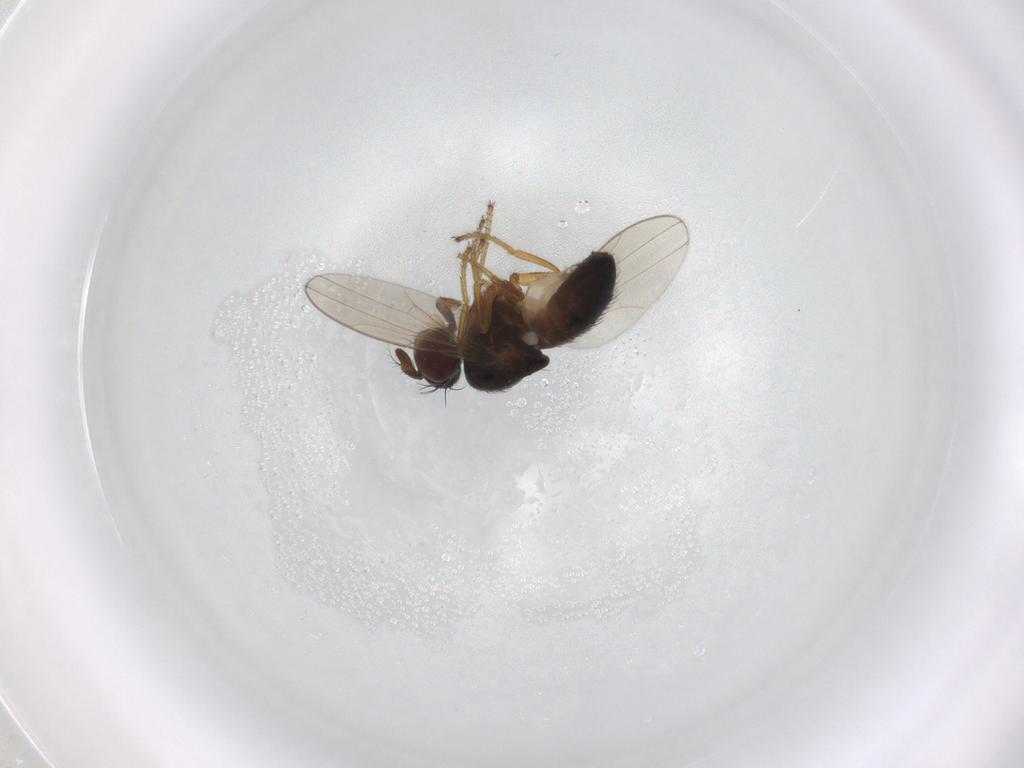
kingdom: Animalia
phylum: Arthropoda
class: Insecta
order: Diptera
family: Ephydridae
